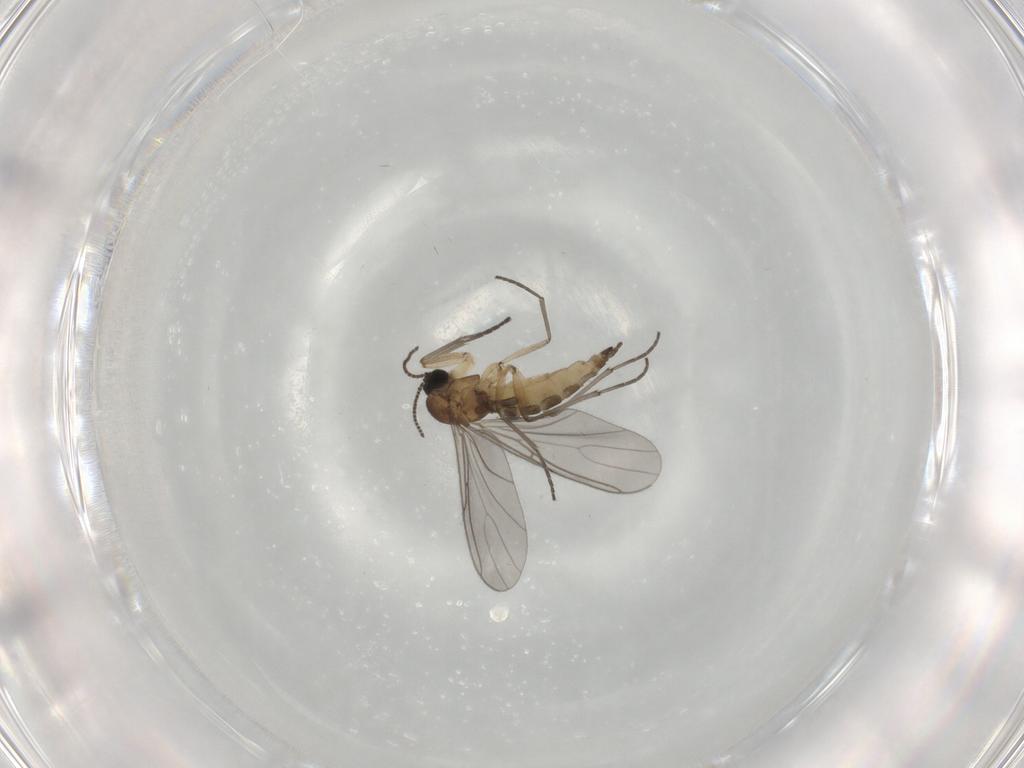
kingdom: Animalia
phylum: Arthropoda
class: Insecta
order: Diptera
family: Sciaridae
